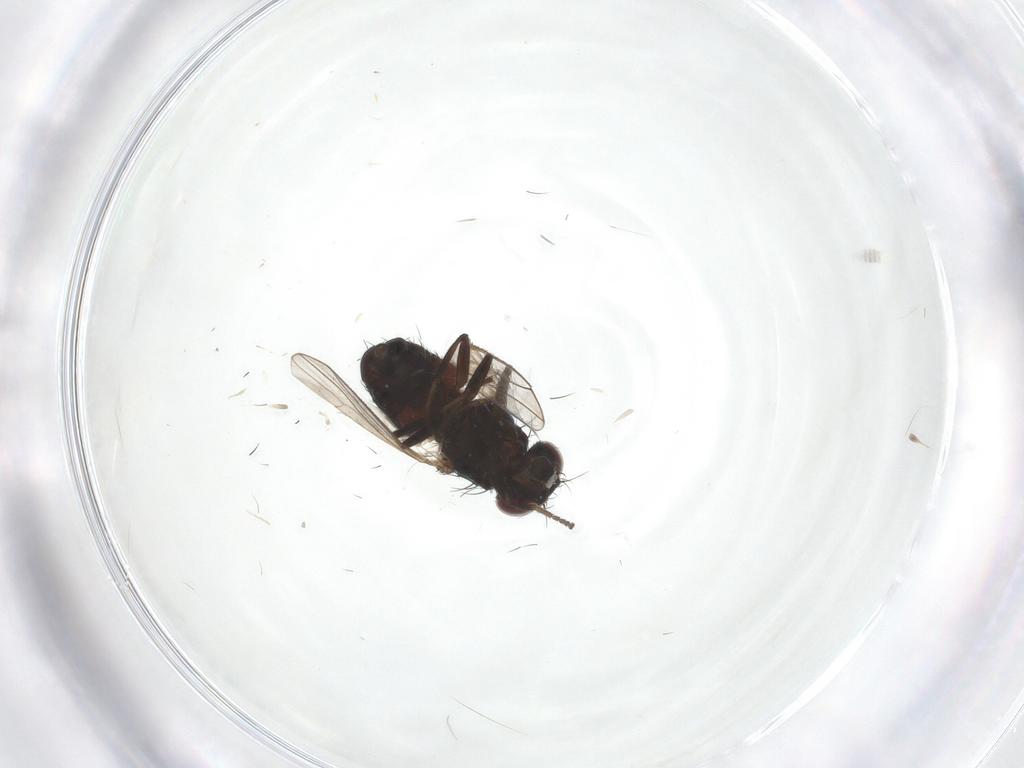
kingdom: Animalia
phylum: Arthropoda
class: Insecta
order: Diptera
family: Carnidae
